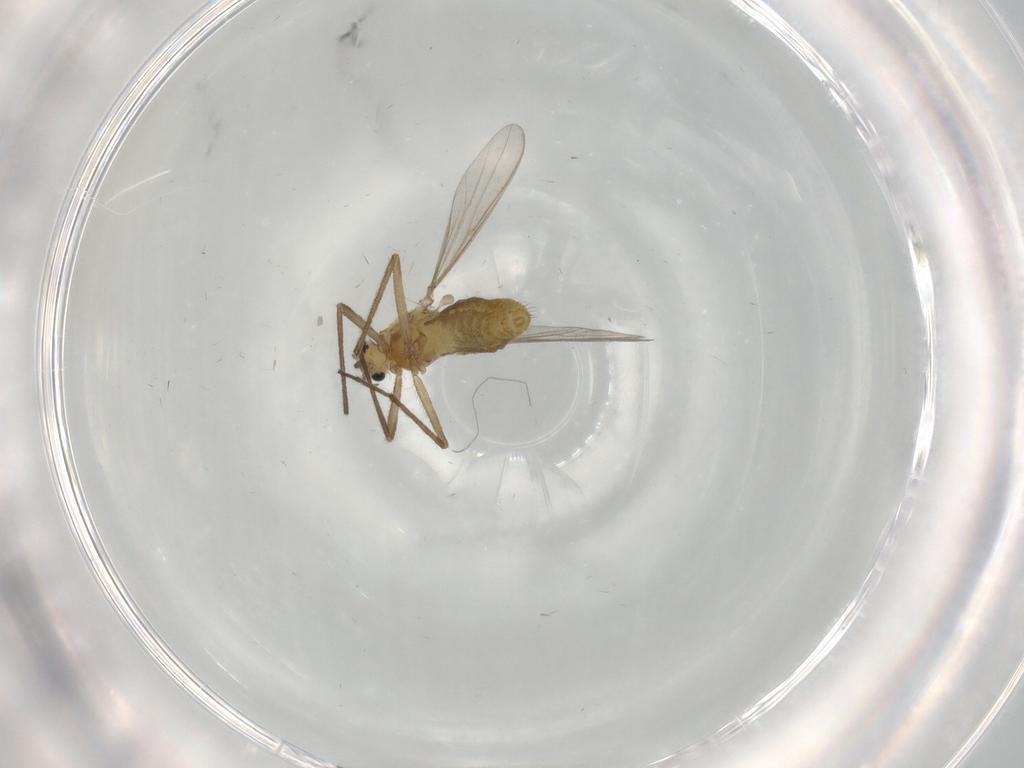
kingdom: Animalia
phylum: Arthropoda
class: Insecta
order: Diptera
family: Chironomidae
